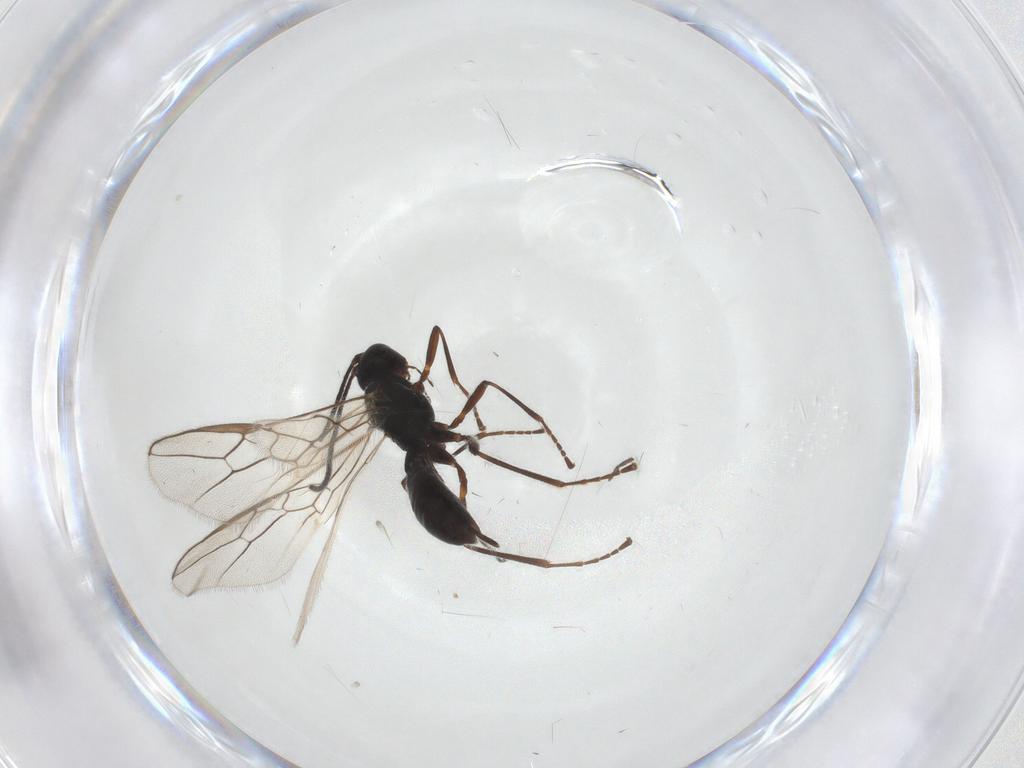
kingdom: Animalia
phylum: Arthropoda
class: Insecta
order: Hymenoptera
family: Braconidae
